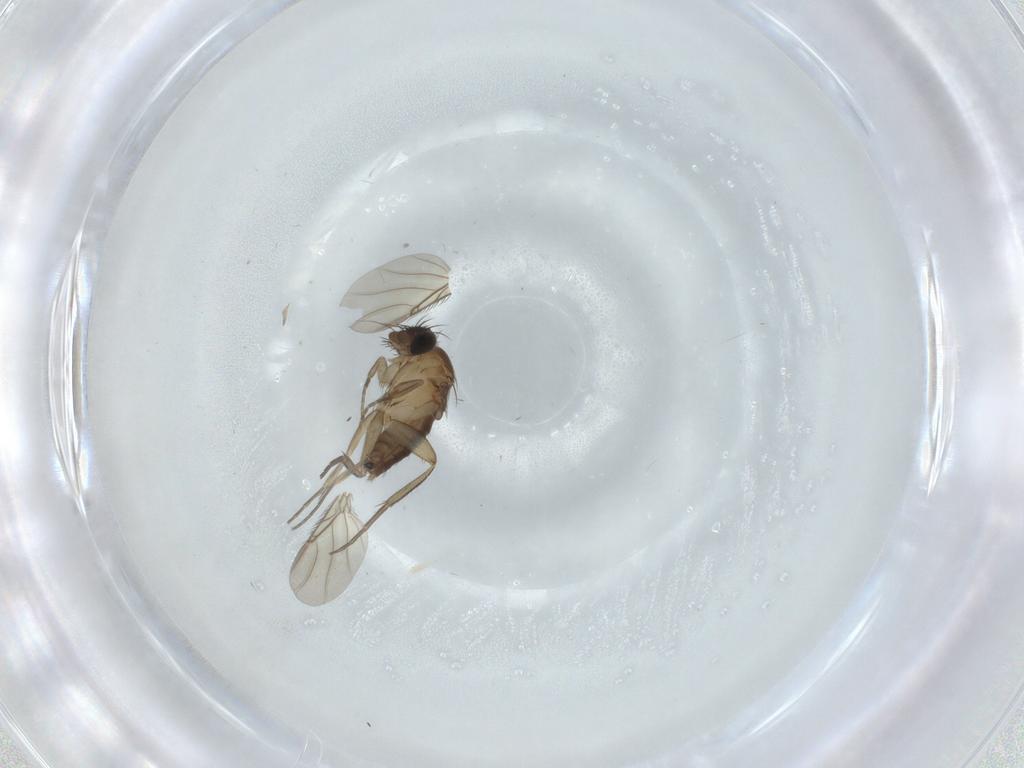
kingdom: Animalia
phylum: Arthropoda
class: Insecta
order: Diptera
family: Phoridae
